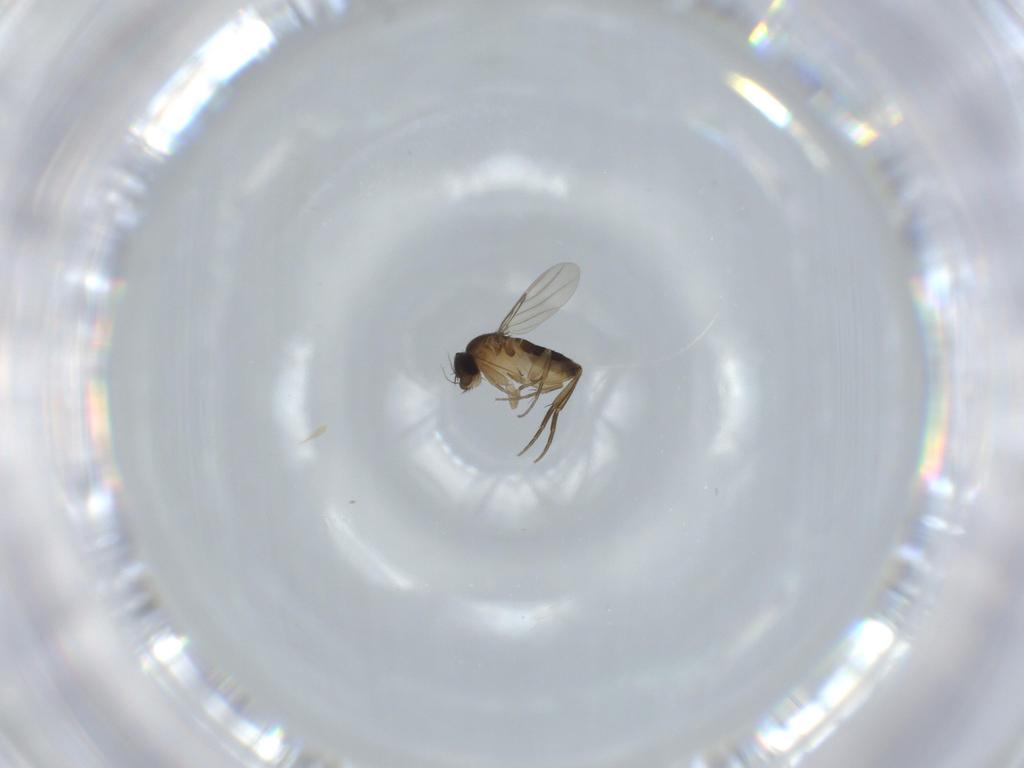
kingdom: Animalia
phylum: Arthropoda
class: Insecta
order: Diptera
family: Phoridae
